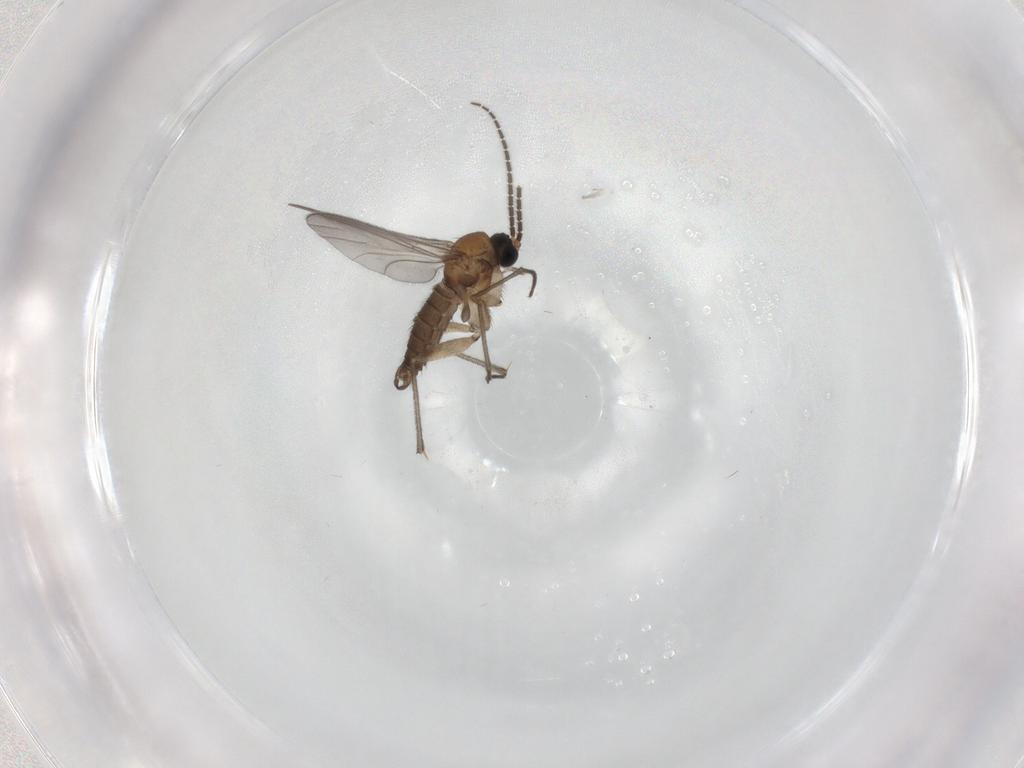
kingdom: Animalia
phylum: Arthropoda
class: Insecta
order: Diptera
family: Sciaridae
